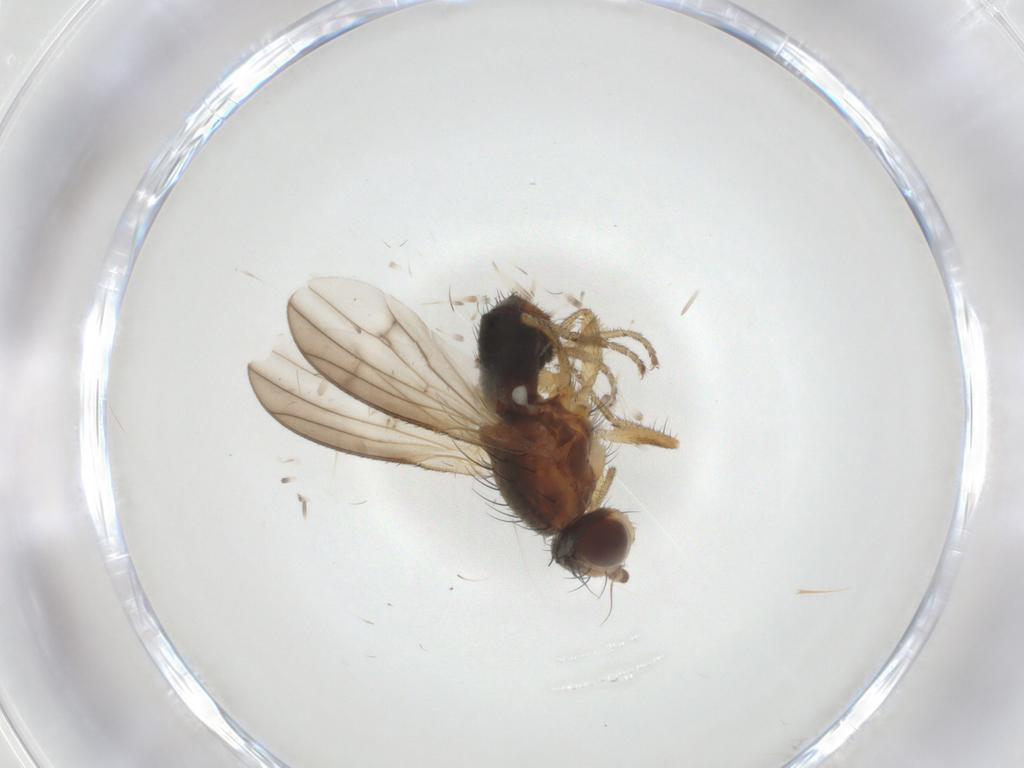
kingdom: Animalia
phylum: Arthropoda
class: Insecta
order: Diptera
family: Heleomyzidae
